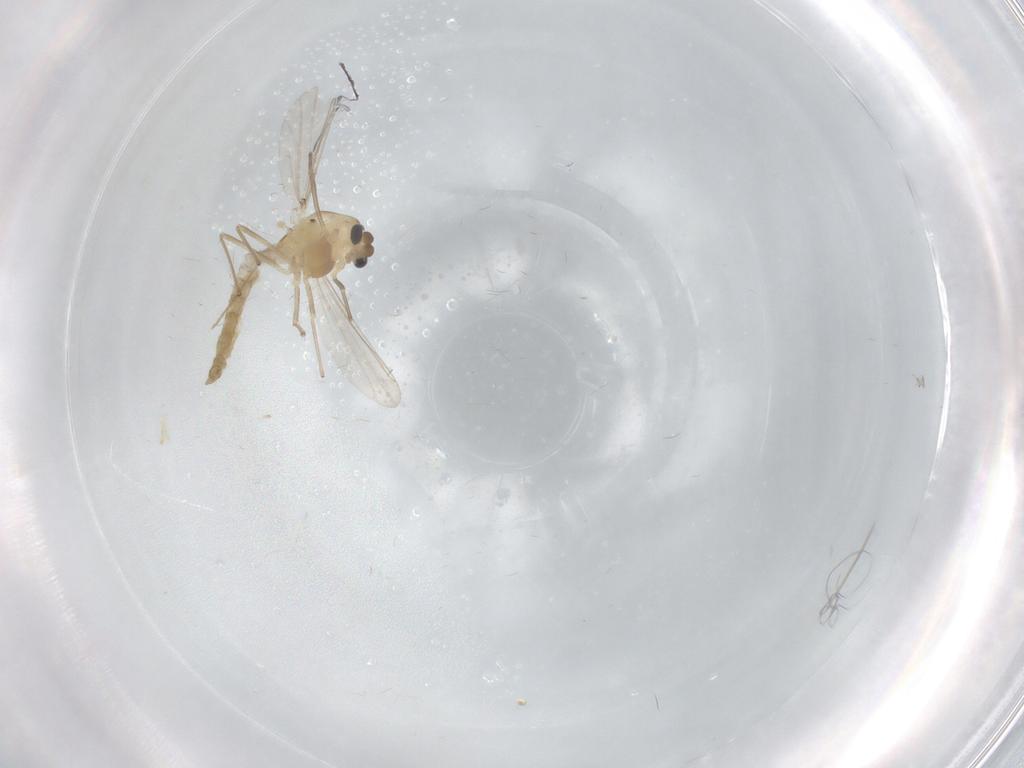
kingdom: Animalia
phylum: Arthropoda
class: Insecta
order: Diptera
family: Chironomidae
